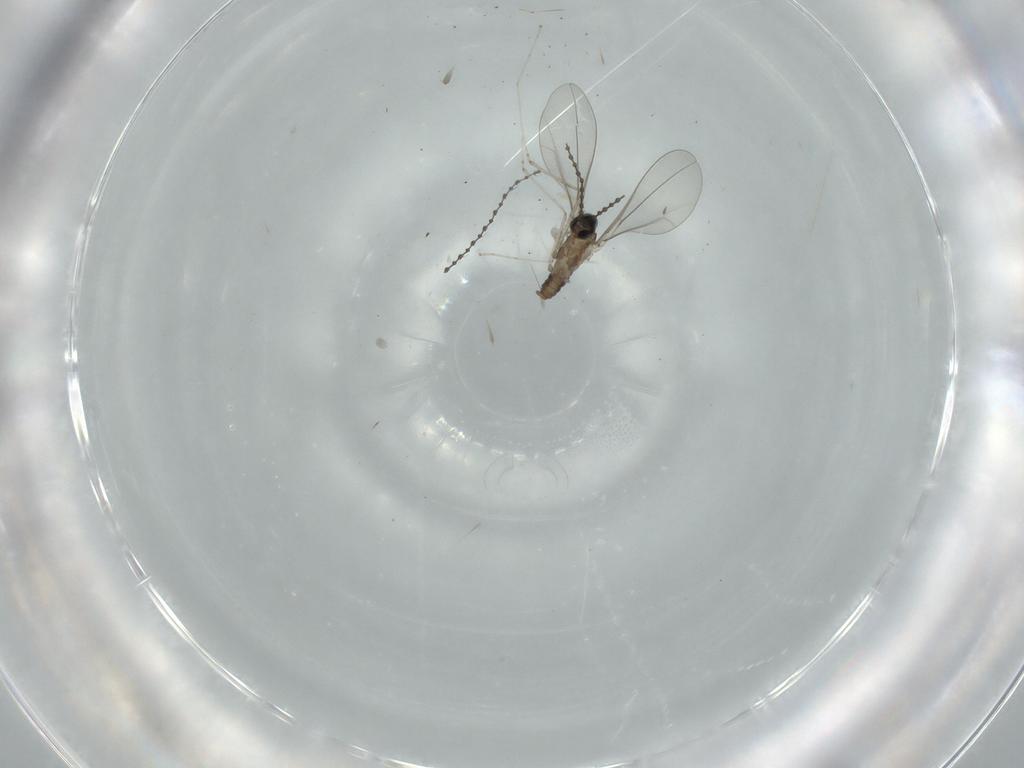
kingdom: Animalia
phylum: Arthropoda
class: Insecta
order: Diptera
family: Cecidomyiidae
